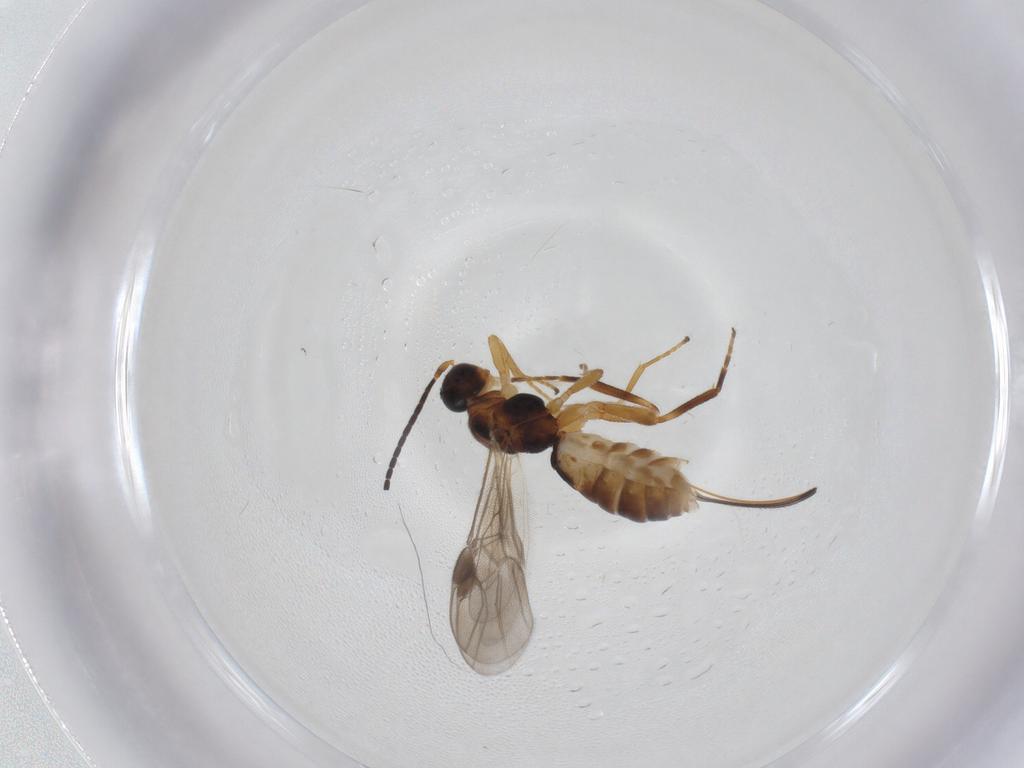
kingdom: Animalia
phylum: Arthropoda
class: Insecta
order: Hymenoptera
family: Braconidae
